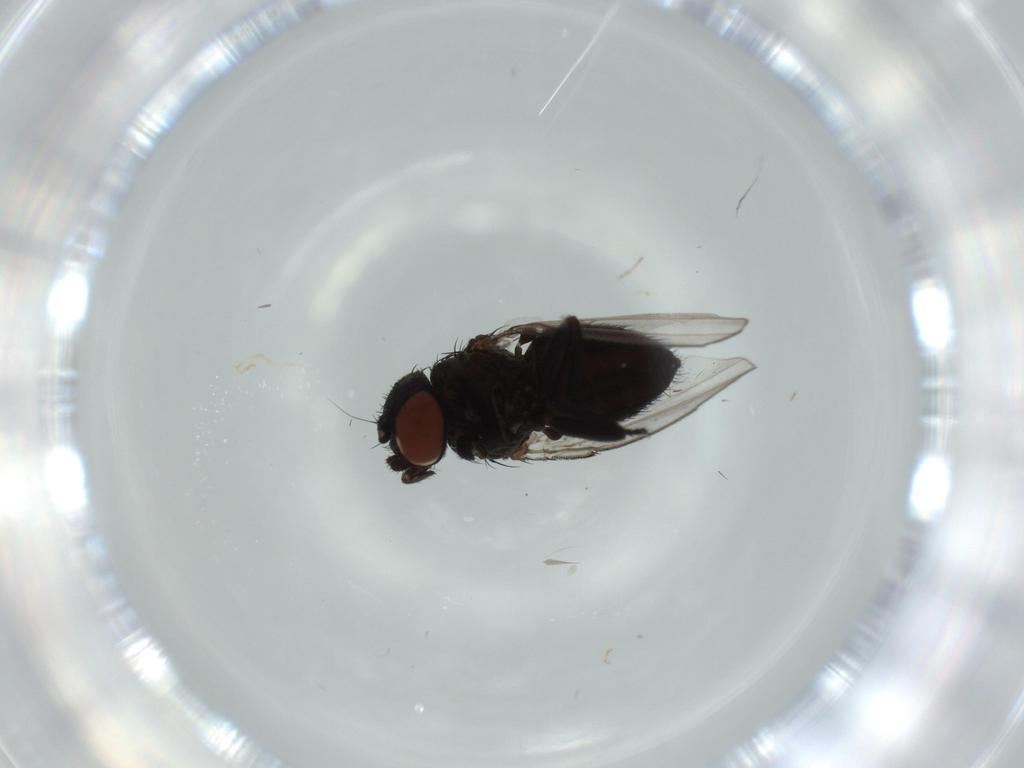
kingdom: Animalia
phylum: Arthropoda
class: Insecta
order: Diptera
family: Milichiidae
